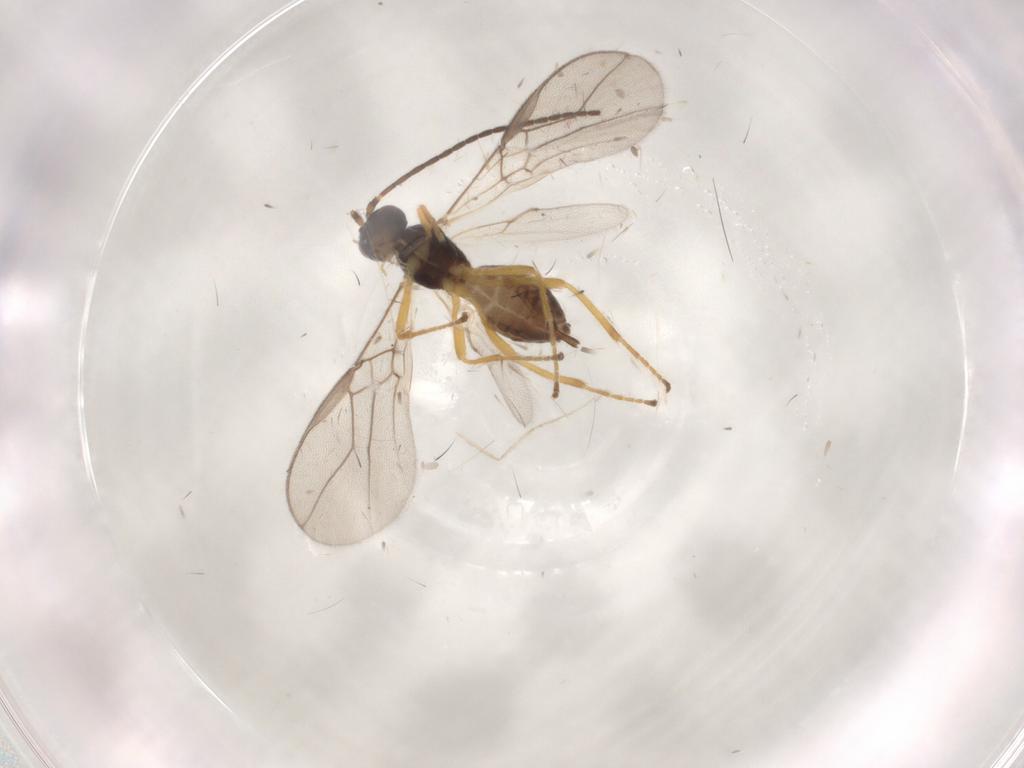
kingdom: Animalia
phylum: Arthropoda
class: Insecta
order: Hymenoptera
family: Braconidae
